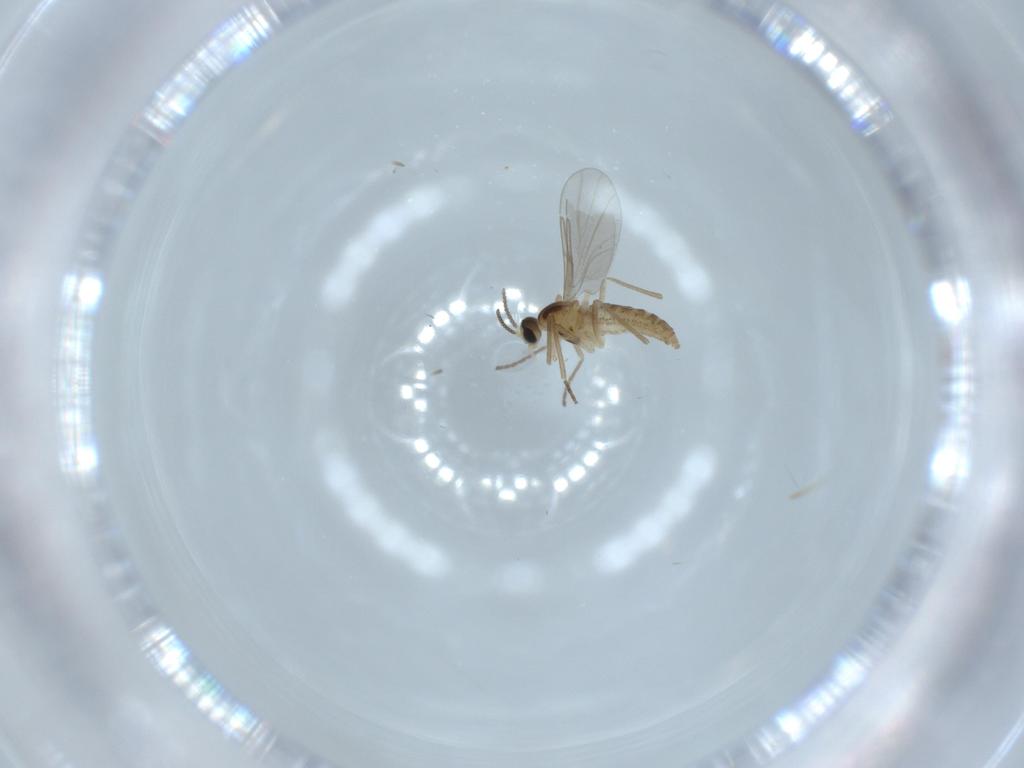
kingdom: Animalia
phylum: Arthropoda
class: Insecta
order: Diptera
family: Cecidomyiidae
